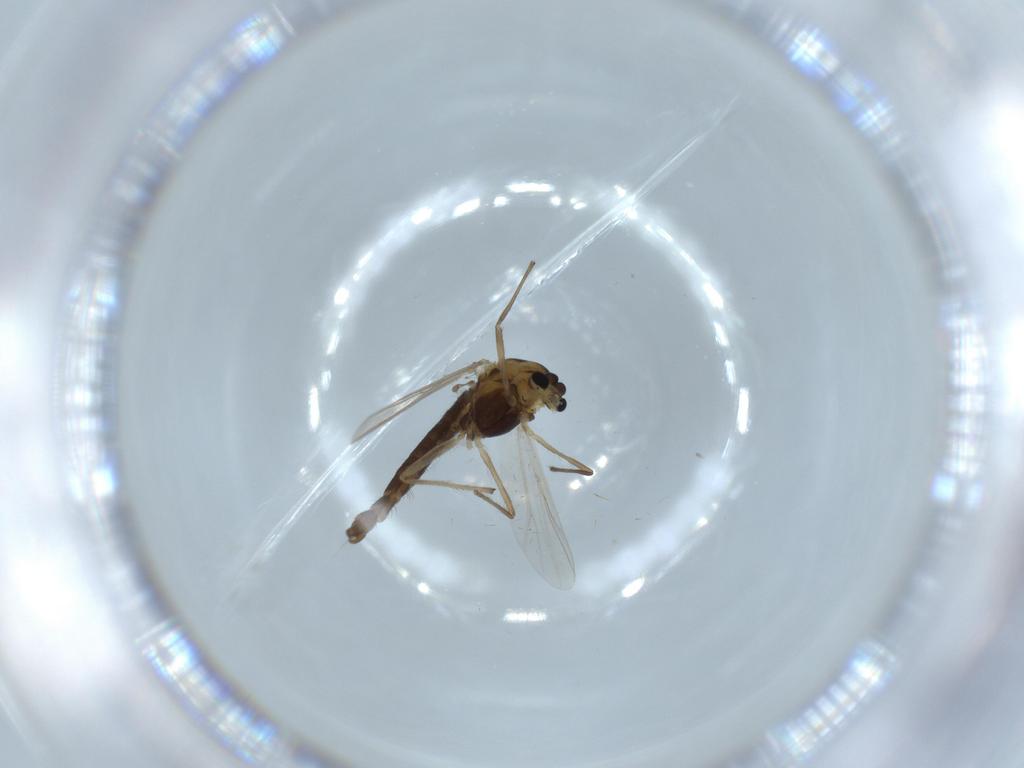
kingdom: Animalia
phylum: Arthropoda
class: Insecta
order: Diptera
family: Chironomidae
